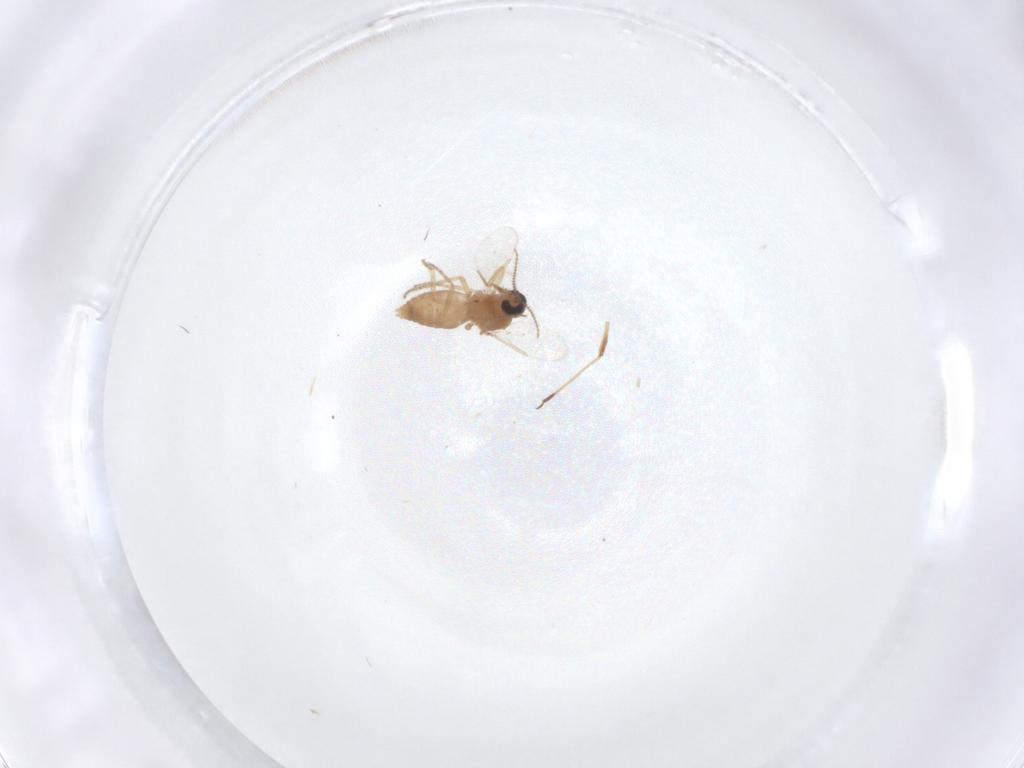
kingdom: Animalia
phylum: Arthropoda
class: Insecta
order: Diptera
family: Ceratopogonidae
